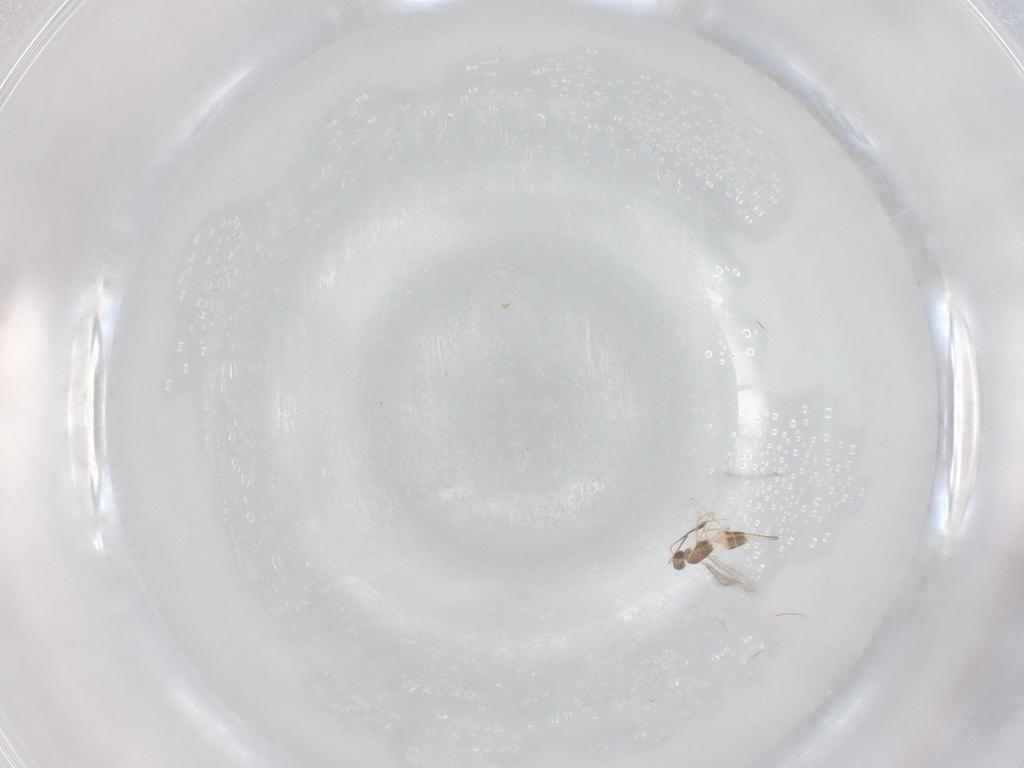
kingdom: Animalia
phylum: Arthropoda
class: Insecta
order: Hymenoptera
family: Mymaridae
